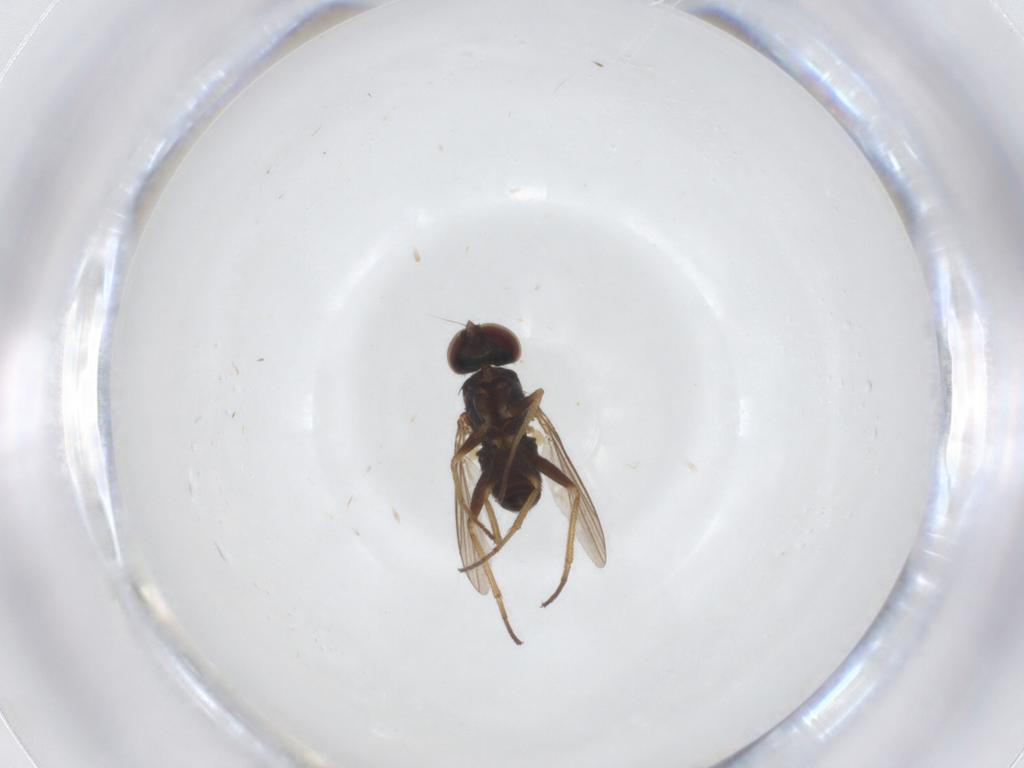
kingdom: Animalia
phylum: Arthropoda
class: Insecta
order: Diptera
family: Dolichopodidae
